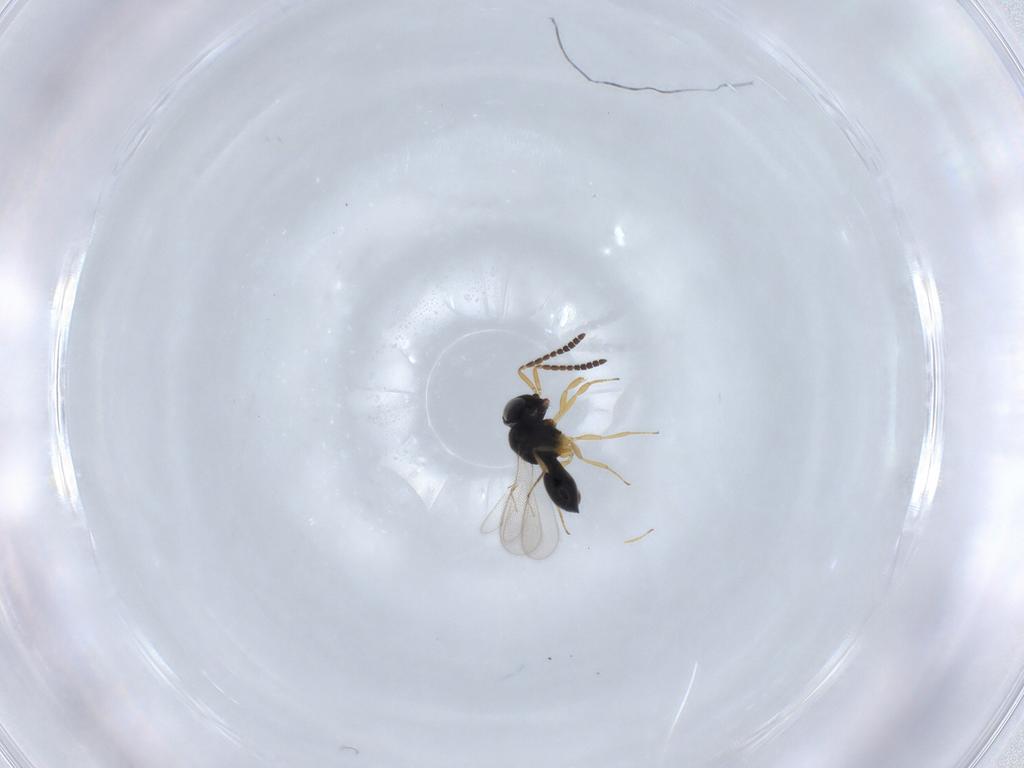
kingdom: Animalia
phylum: Arthropoda
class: Insecta
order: Hymenoptera
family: Scelionidae
